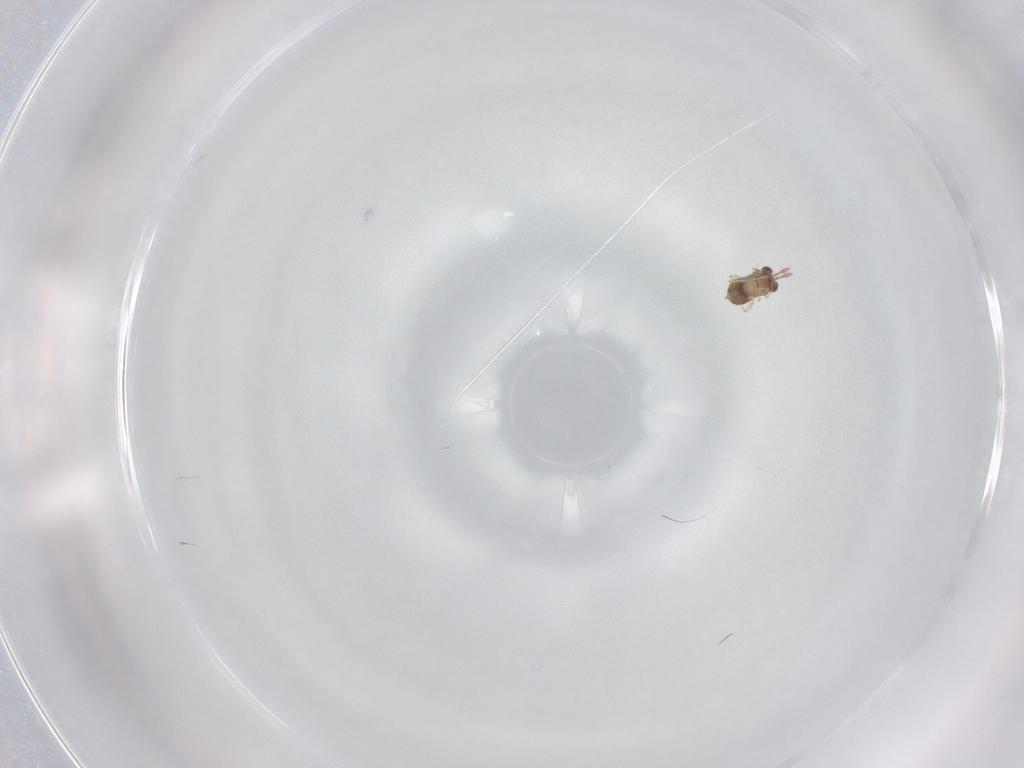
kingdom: Animalia
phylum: Arthropoda
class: Insecta
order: Hymenoptera
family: Trichogrammatidae
